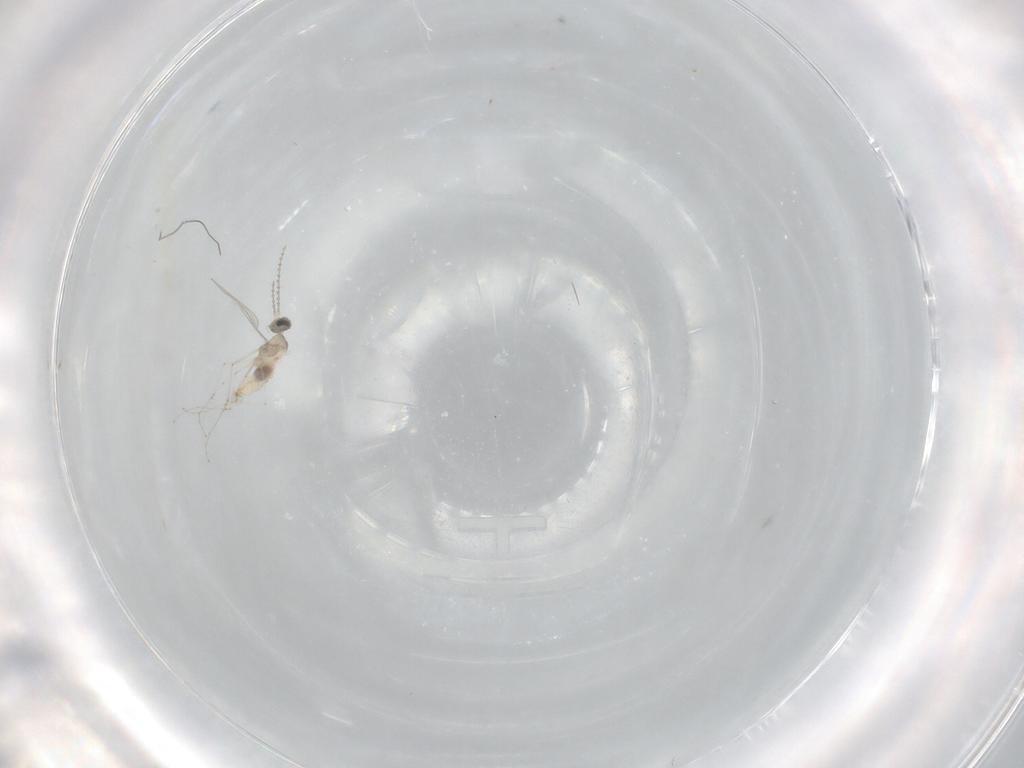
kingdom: Animalia
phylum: Arthropoda
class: Insecta
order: Diptera
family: Cecidomyiidae
